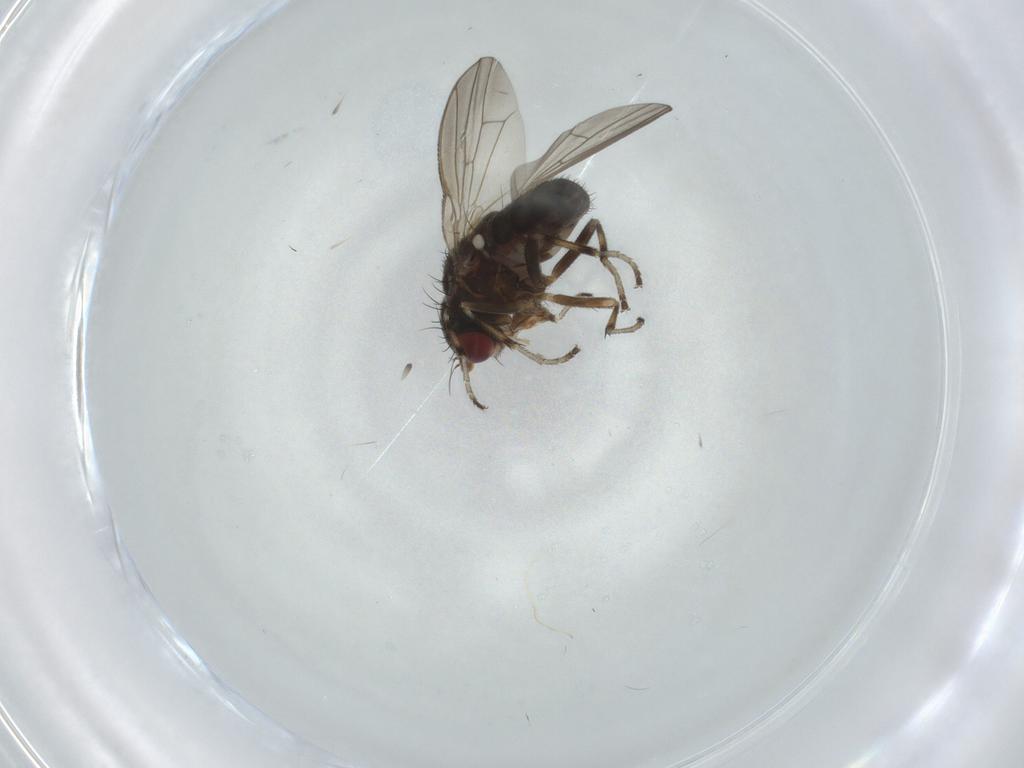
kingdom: Animalia
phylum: Arthropoda
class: Insecta
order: Diptera
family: Heleomyzidae
